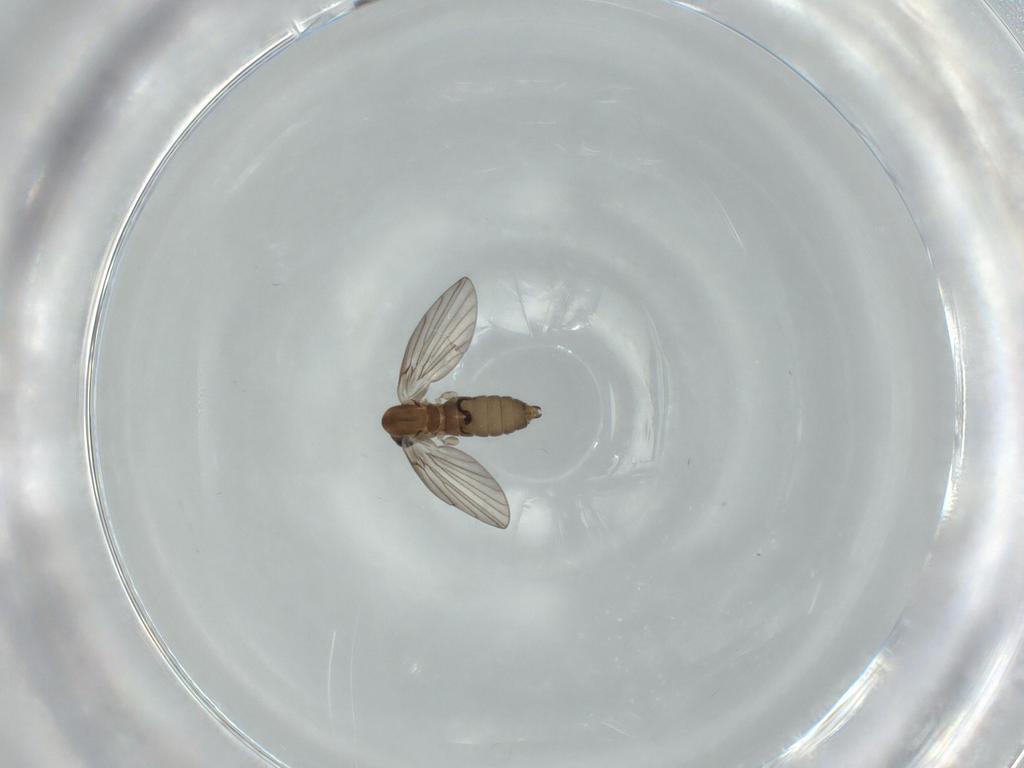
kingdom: Animalia
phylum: Arthropoda
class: Insecta
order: Diptera
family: Psychodidae
